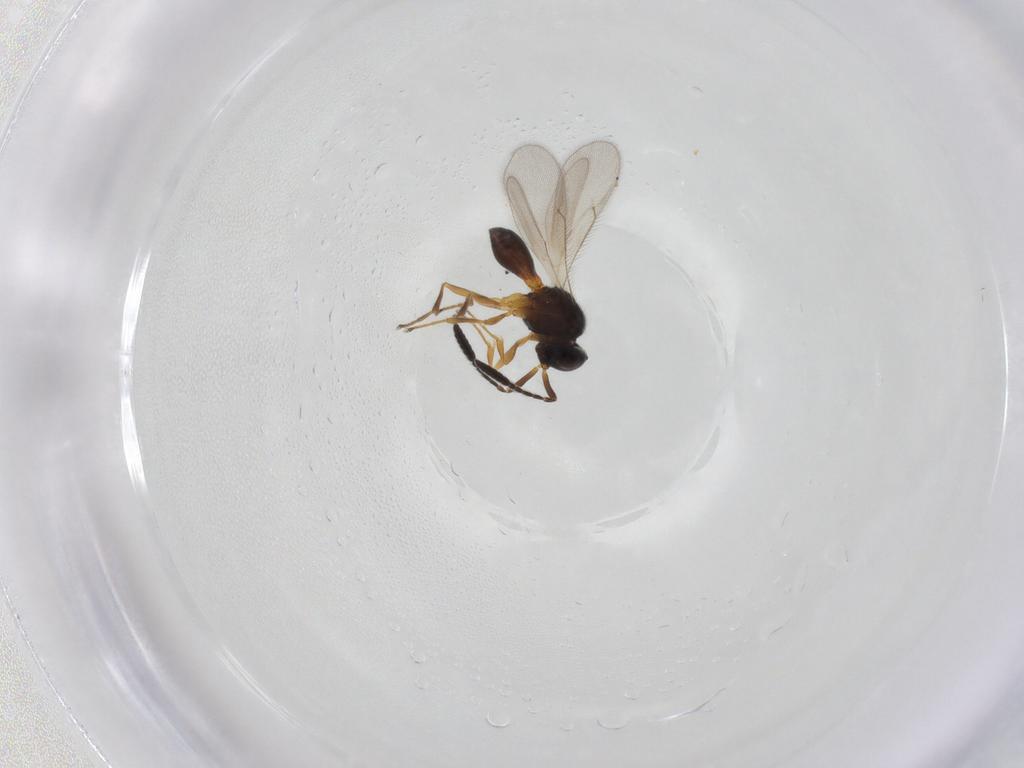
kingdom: Animalia
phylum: Arthropoda
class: Insecta
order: Hymenoptera
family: Scelionidae
